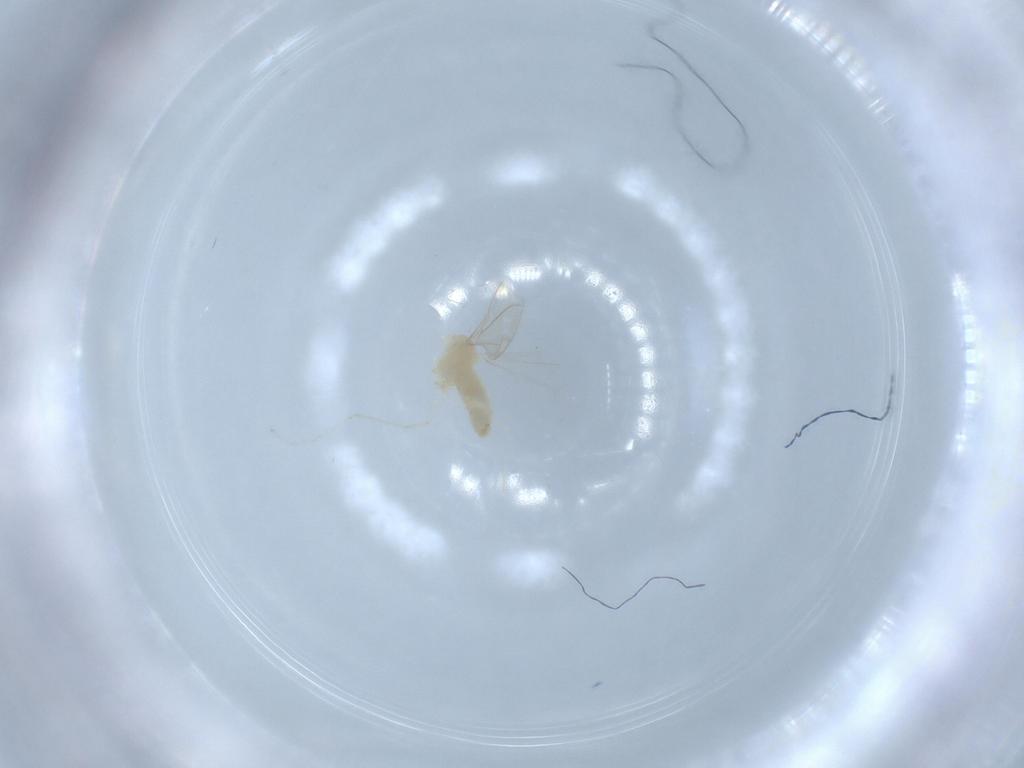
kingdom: Animalia
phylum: Arthropoda
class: Insecta
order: Diptera
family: Cecidomyiidae
